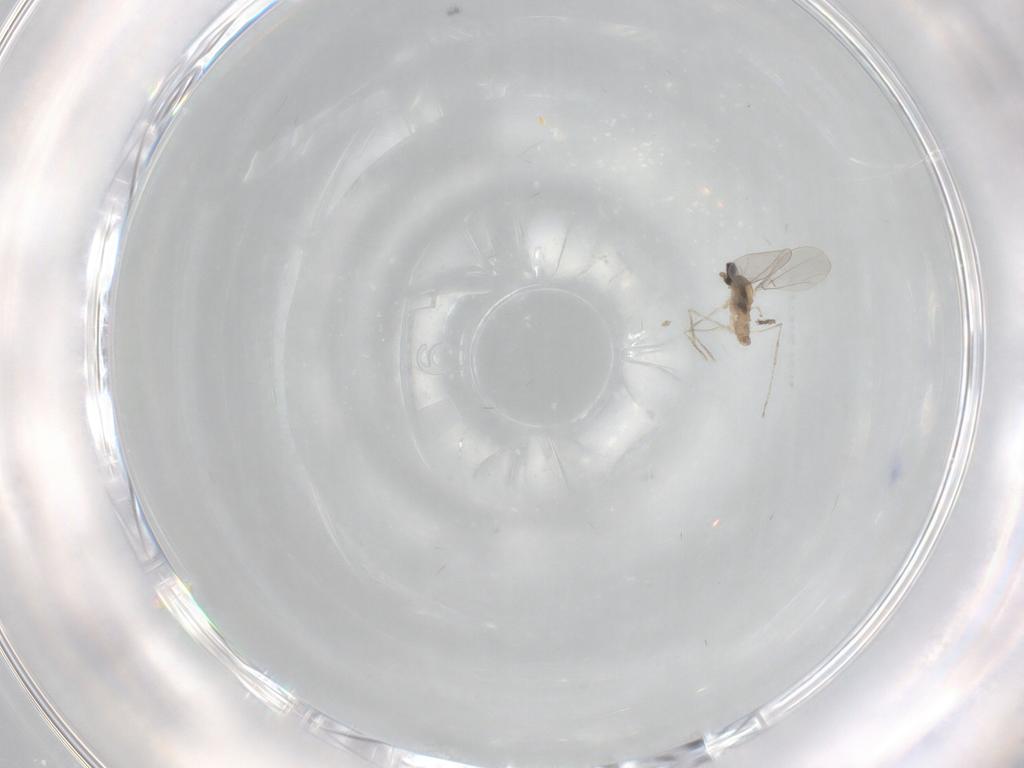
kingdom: Animalia
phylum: Arthropoda
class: Insecta
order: Diptera
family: Cecidomyiidae
